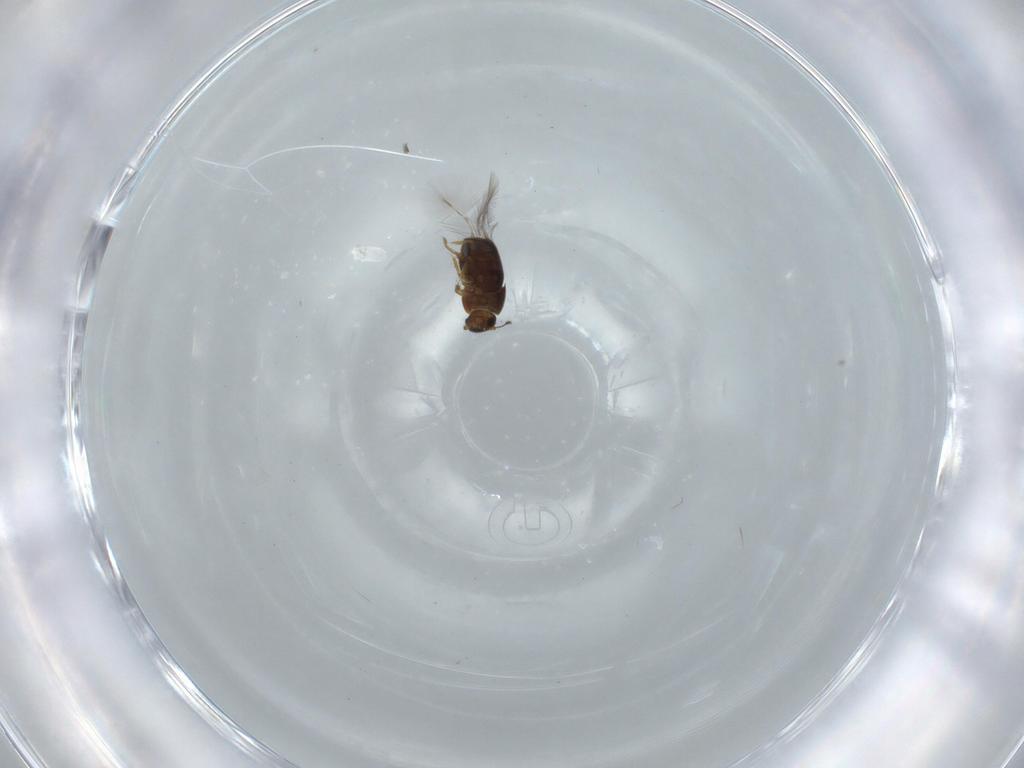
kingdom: Animalia
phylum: Arthropoda
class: Insecta
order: Coleoptera
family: Ptiliidae
